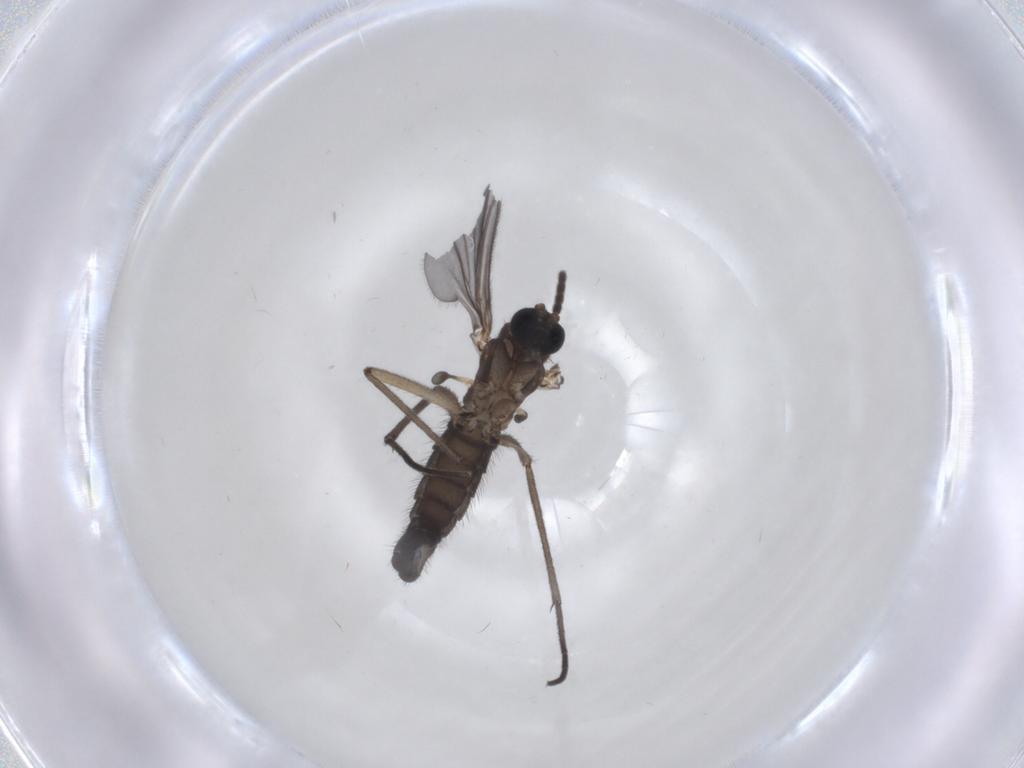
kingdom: Animalia
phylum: Arthropoda
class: Insecta
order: Diptera
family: Sciaridae
